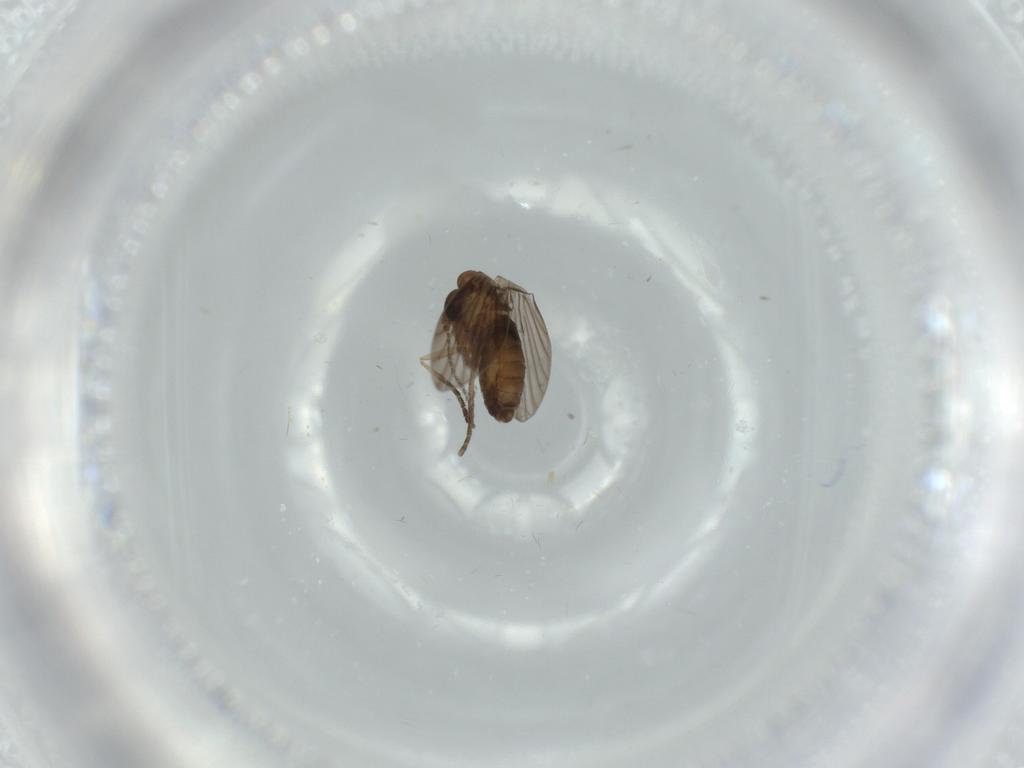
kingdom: Animalia
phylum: Arthropoda
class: Insecta
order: Diptera
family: Psychodidae
